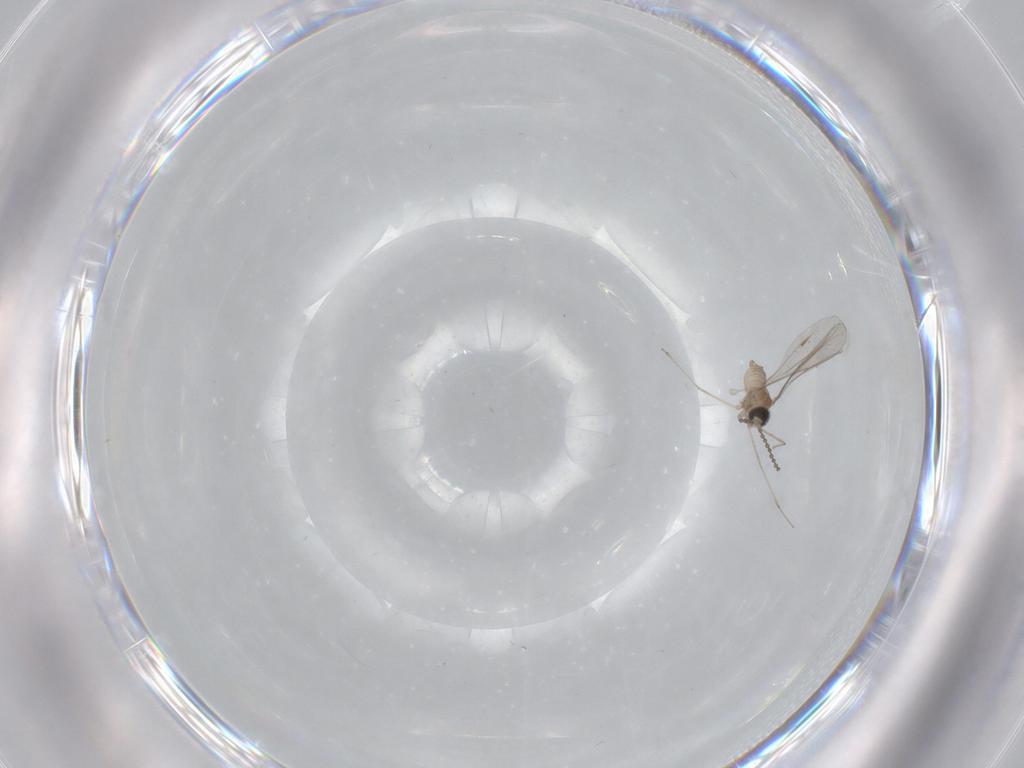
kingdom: Animalia
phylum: Arthropoda
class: Insecta
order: Diptera
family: Cecidomyiidae
